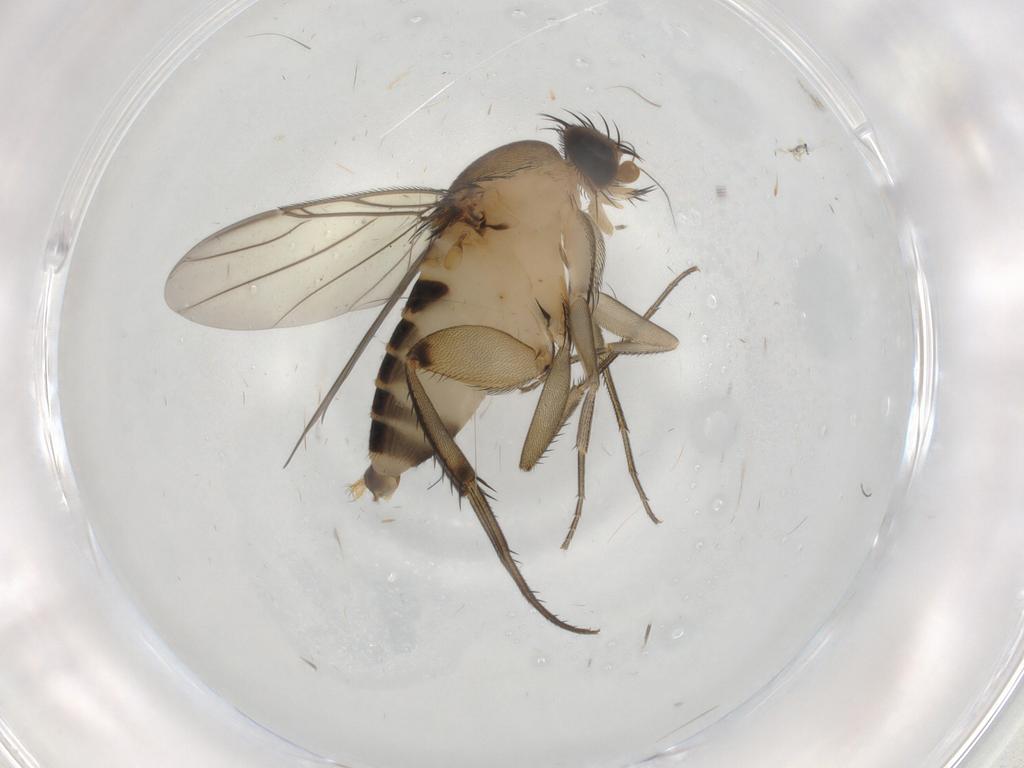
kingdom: Animalia
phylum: Arthropoda
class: Insecta
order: Diptera
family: Phoridae
